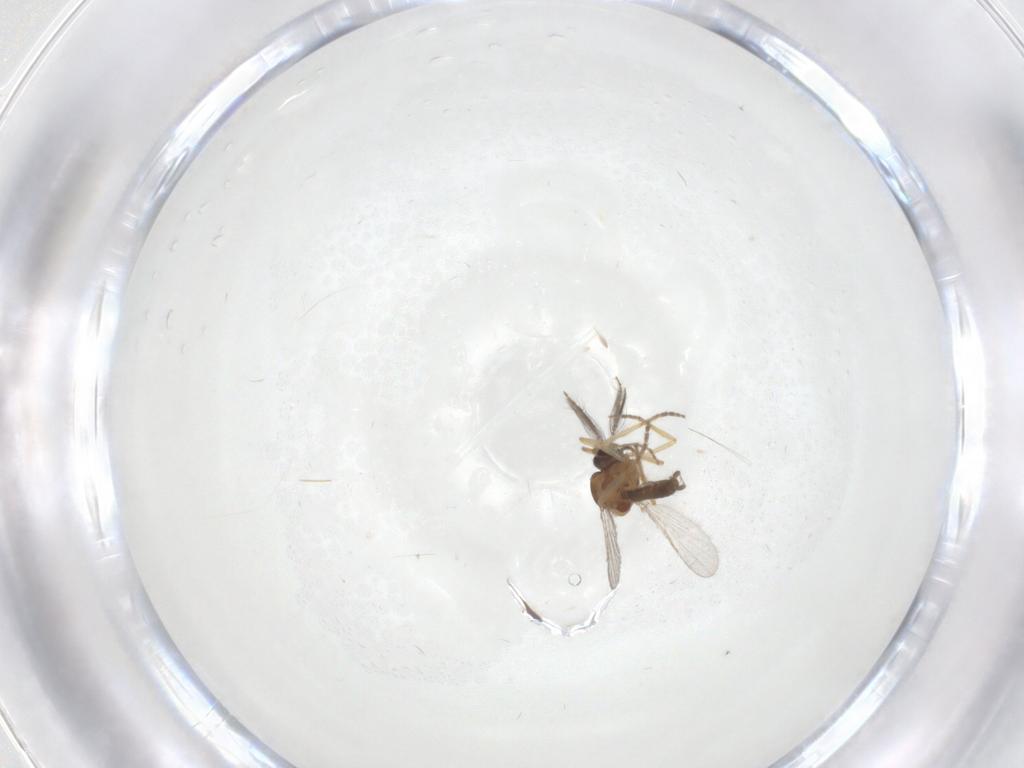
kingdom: Animalia
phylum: Arthropoda
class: Insecta
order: Diptera
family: Ceratopogonidae
